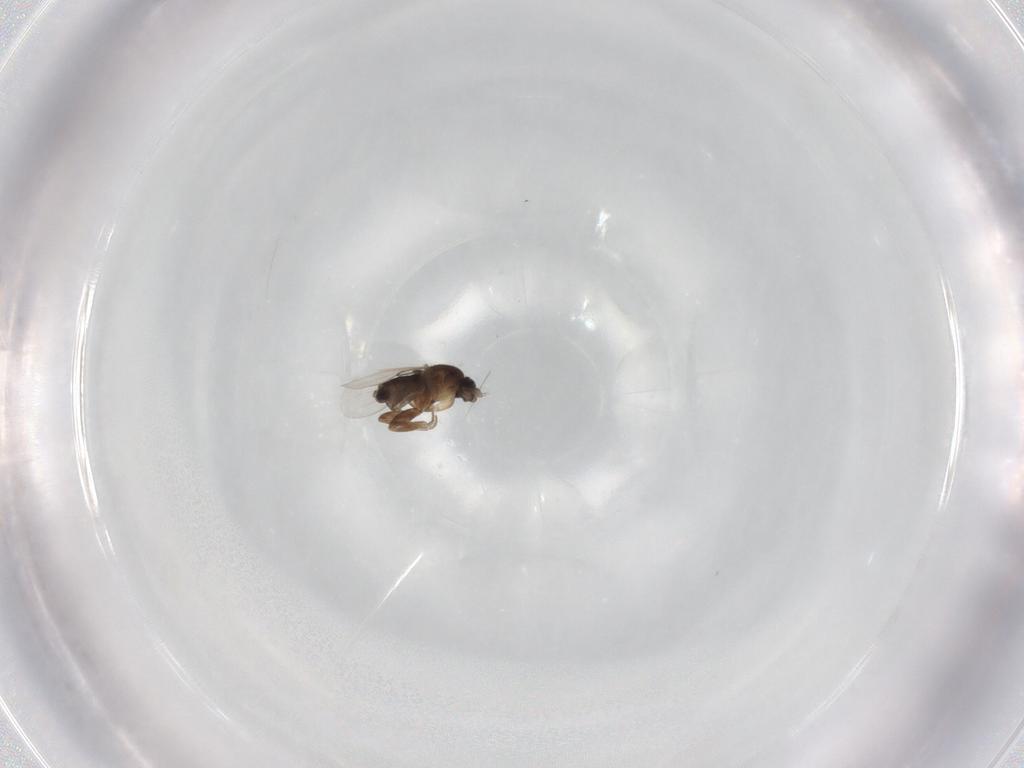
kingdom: Animalia
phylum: Arthropoda
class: Insecta
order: Diptera
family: Phoridae
